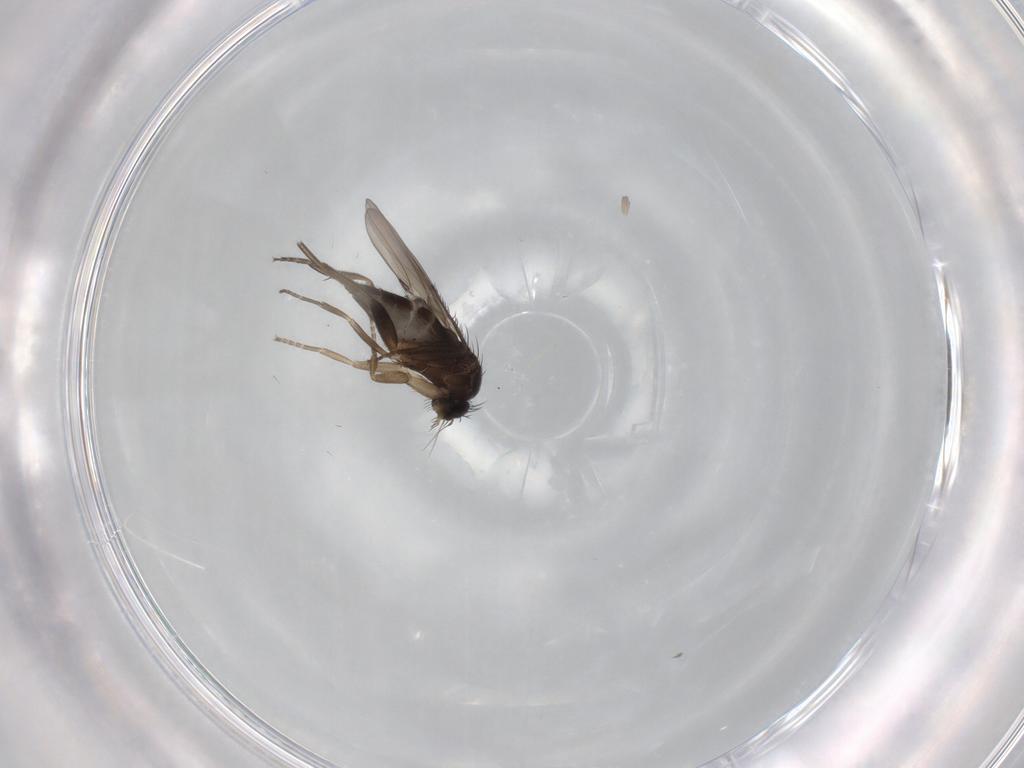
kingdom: Animalia
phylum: Arthropoda
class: Insecta
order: Diptera
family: Phoridae
